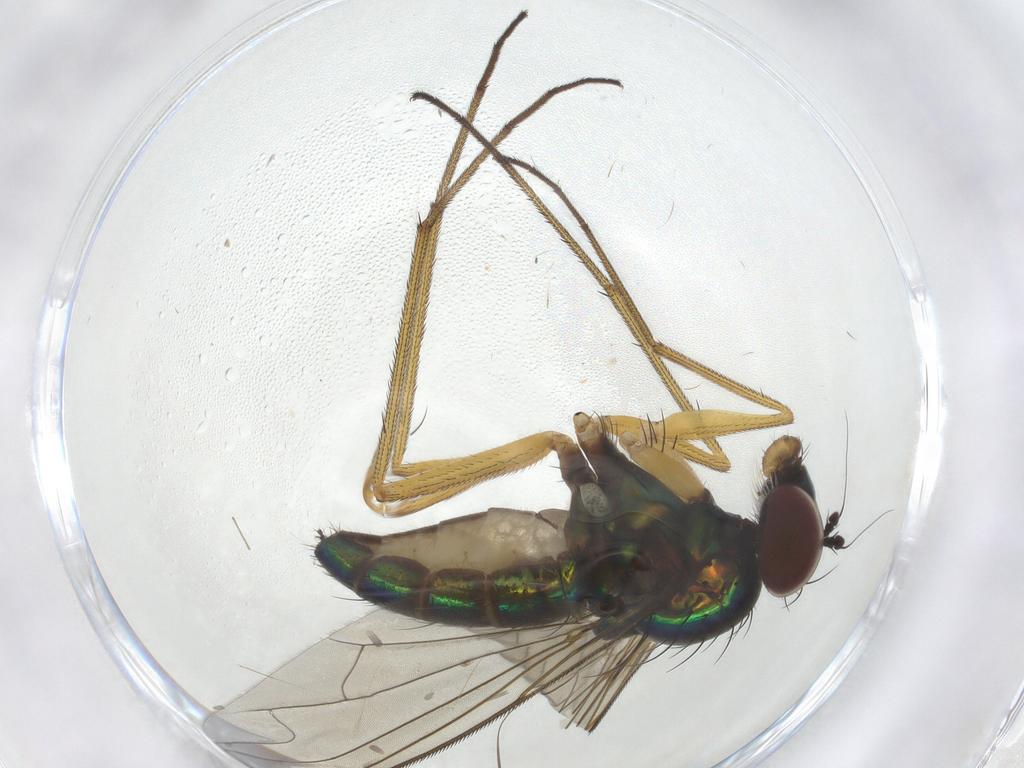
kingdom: Animalia
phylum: Arthropoda
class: Insecta
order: Diptera
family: Dolichopodidae
